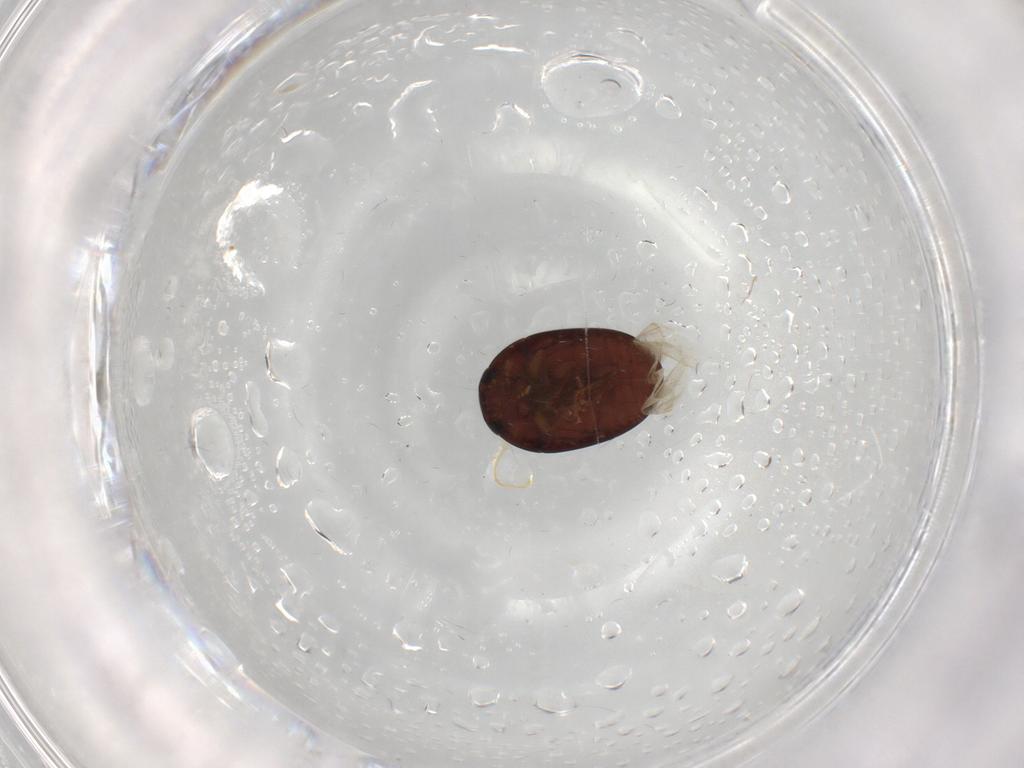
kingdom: Animalia
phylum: Arthropoda
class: Insecta
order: Coleoptera
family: Phalacridae
